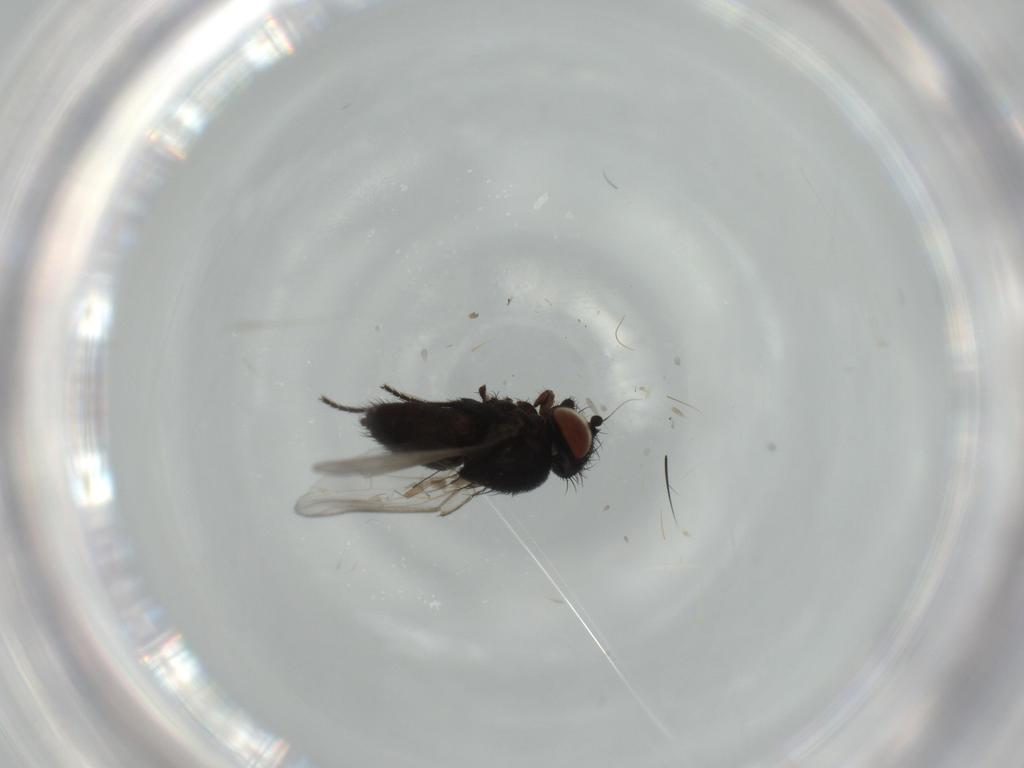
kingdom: Animalia
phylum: Arthropoda
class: Insecta
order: Diptera
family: Milichiidae
